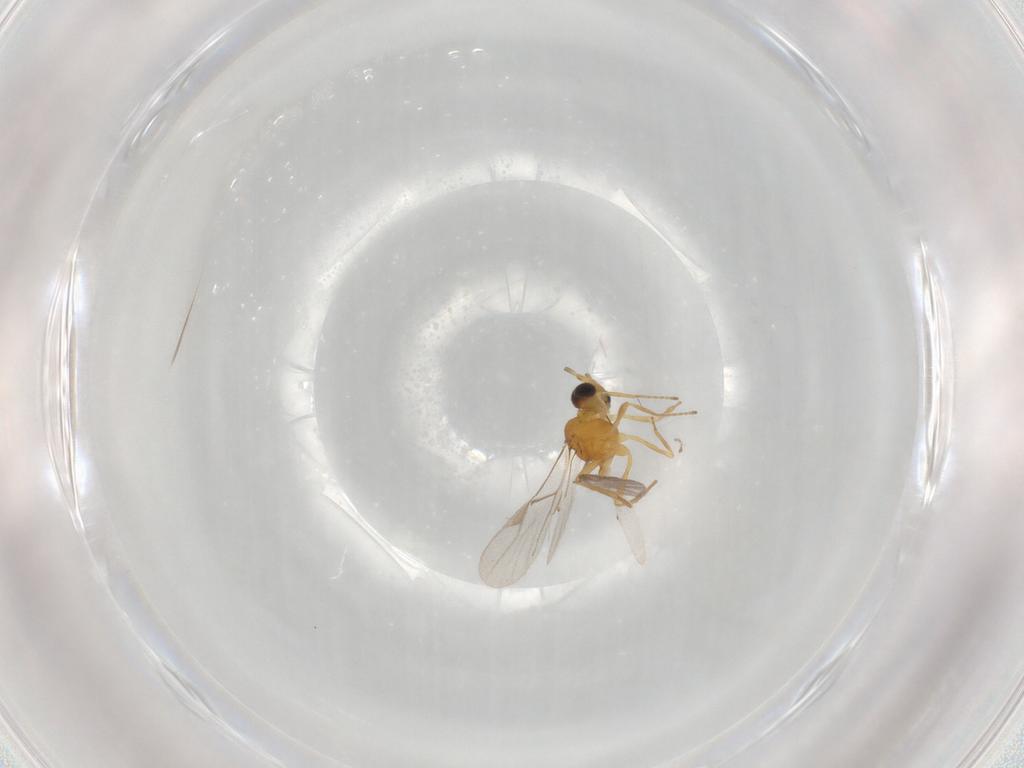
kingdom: Animalia
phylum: Arthropoda
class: Insecta
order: Hymenoptera
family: Braconidae
